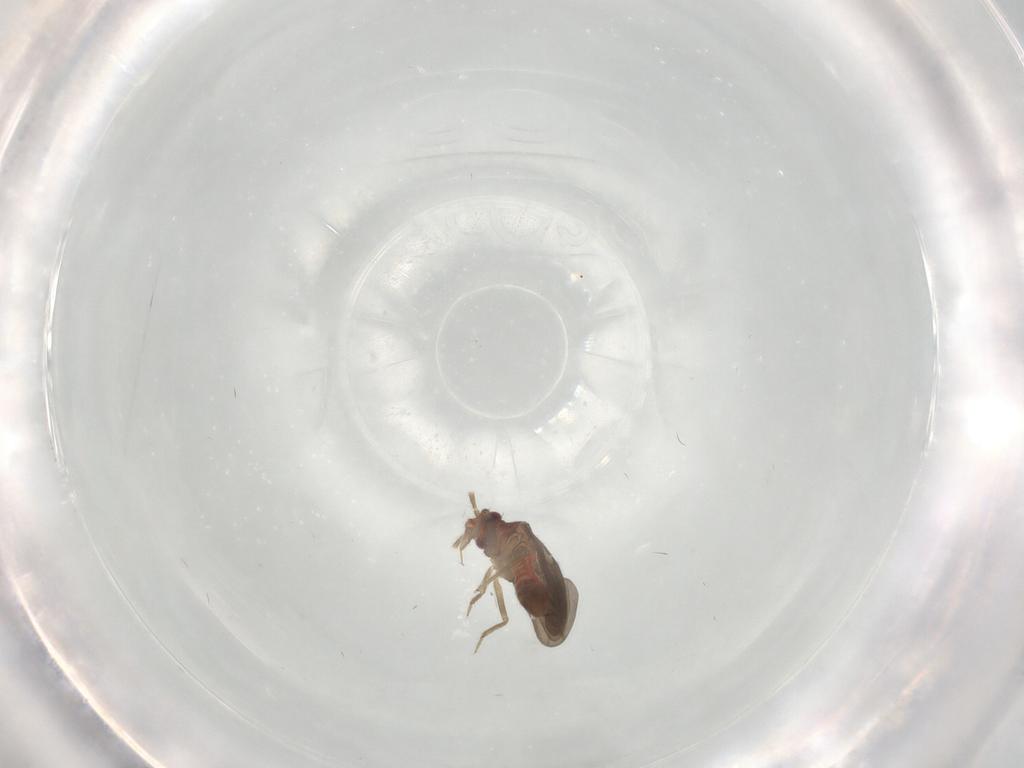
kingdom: Animalia
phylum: Arthropoda
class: Insecta
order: Hemiptera
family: Ceratocombidae
